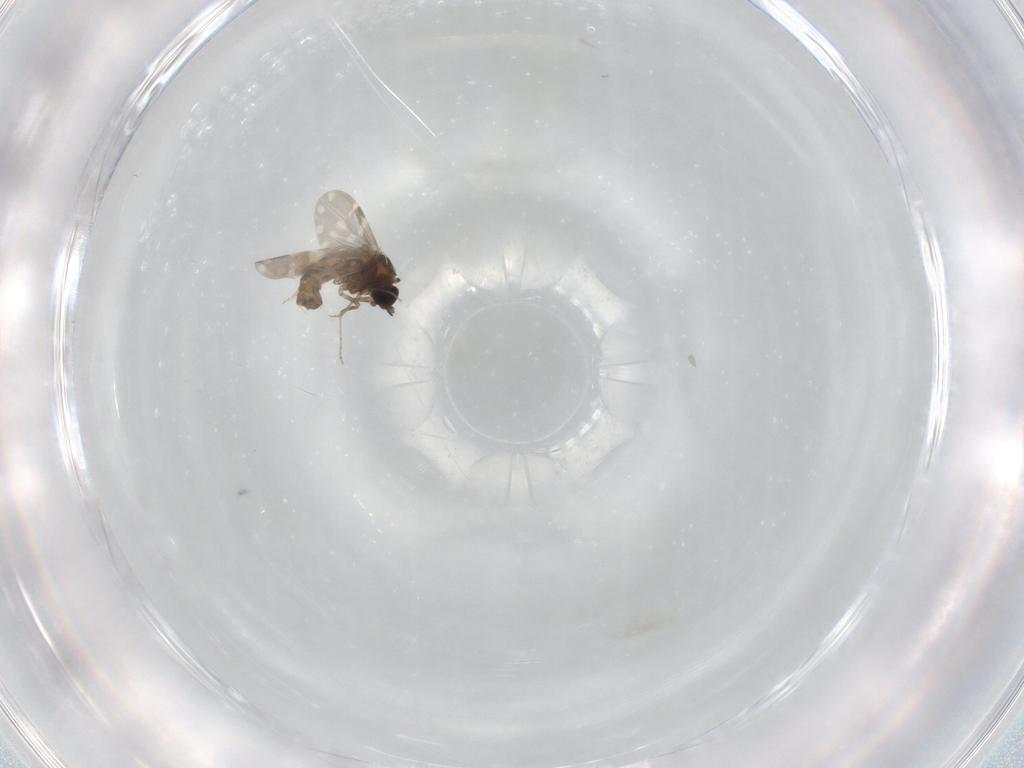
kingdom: Animalia
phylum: Arthropoda
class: Insecta
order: Diptera
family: Ceratopogonidae
